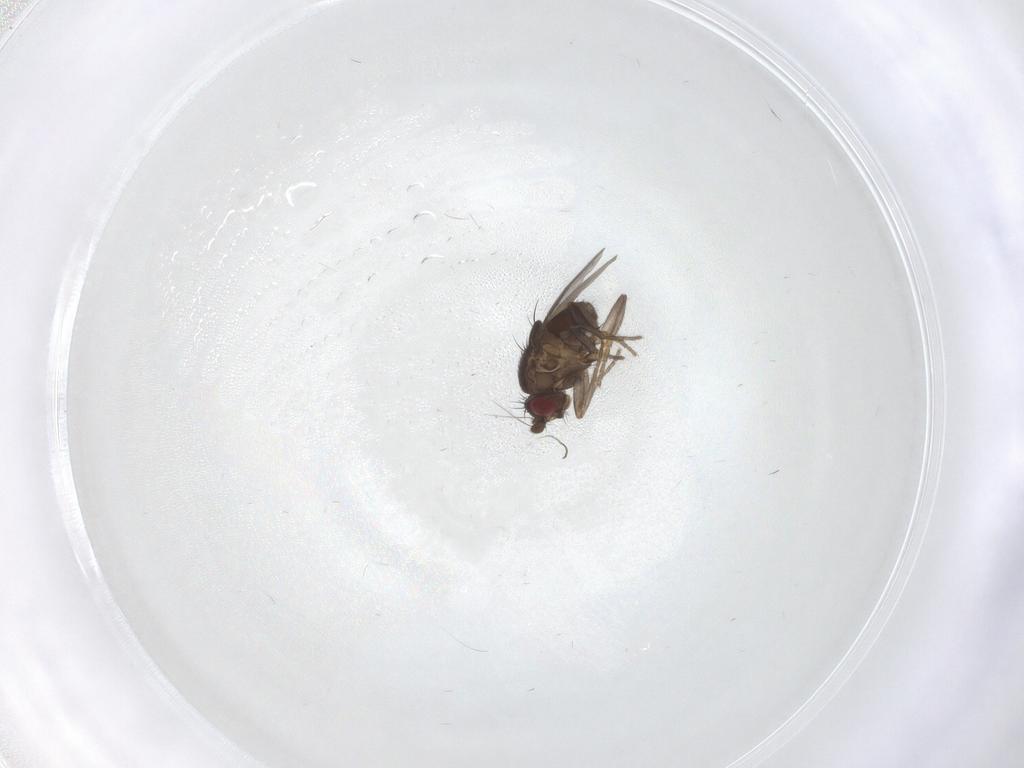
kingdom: Animalia
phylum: Arthropoda
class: Insecta
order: Diptera
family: Sphaeroceridae
